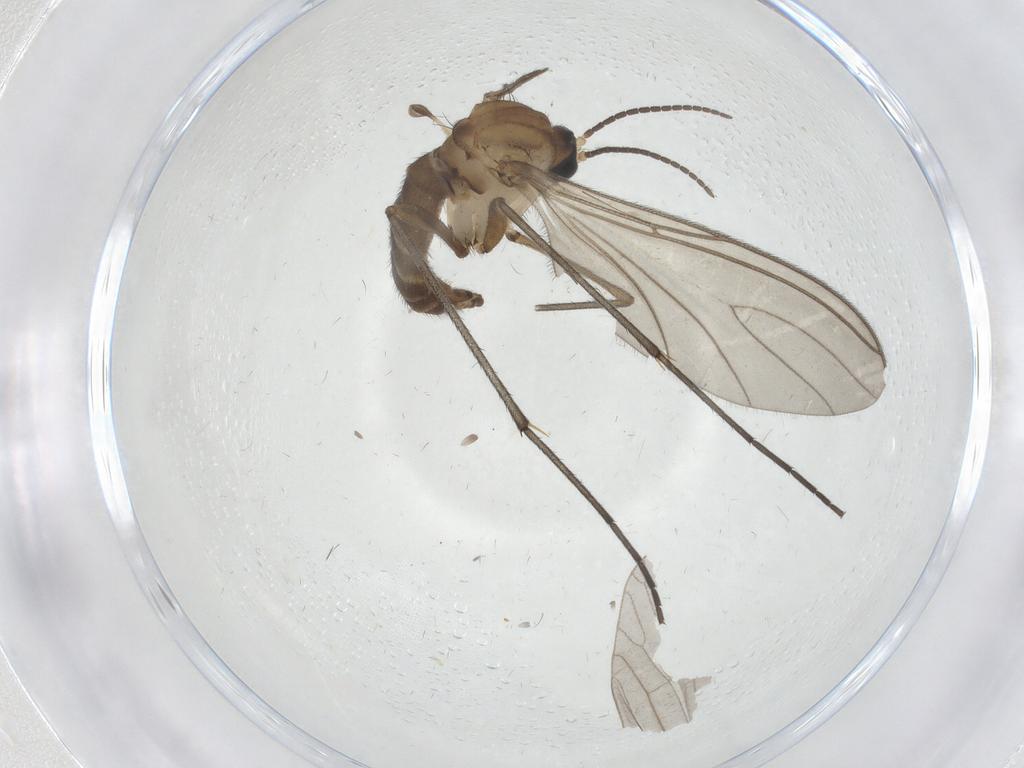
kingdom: Animalia
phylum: Arthropoda
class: Insecta
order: Diptera
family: Sciaridae
